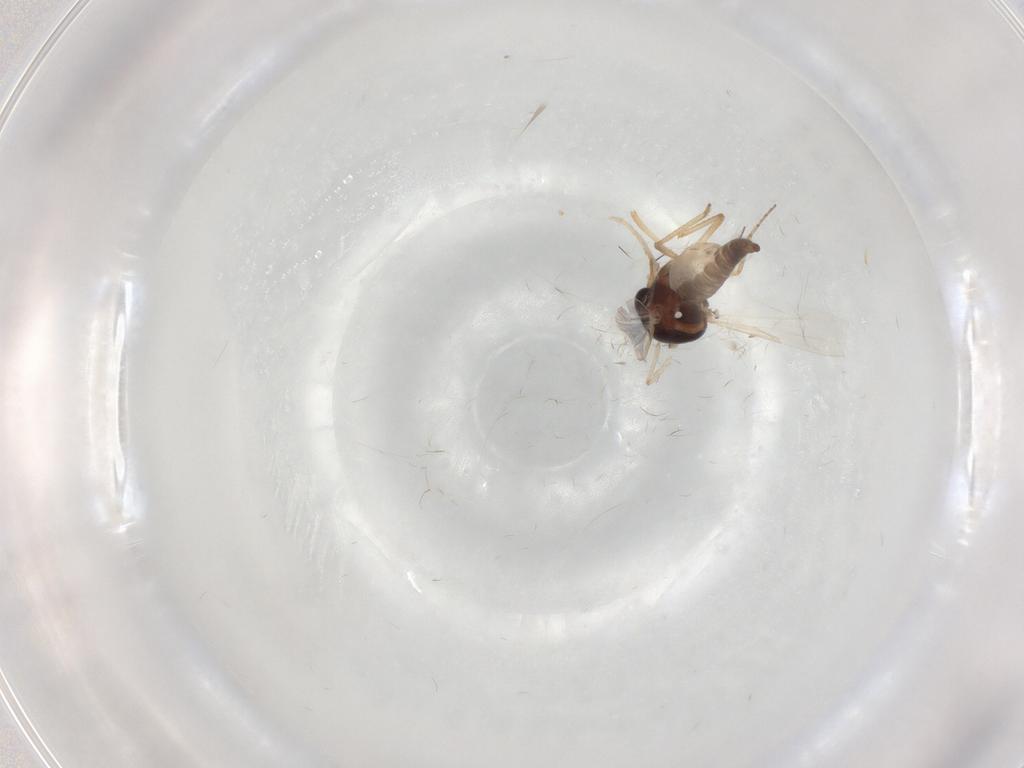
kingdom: Animalia
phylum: Arthropoda
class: Insecta
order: Diptera
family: Ceratopogonidae
